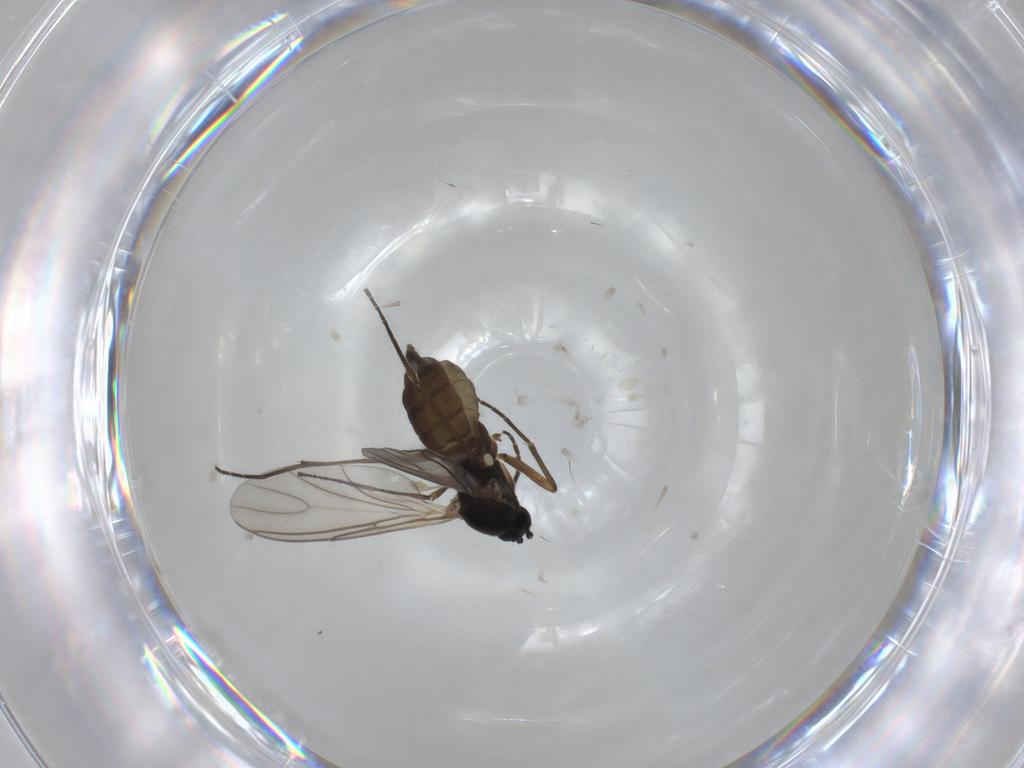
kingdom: Animalia
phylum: Arthropoda
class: Insecta
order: Diptera
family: Sciaridae
